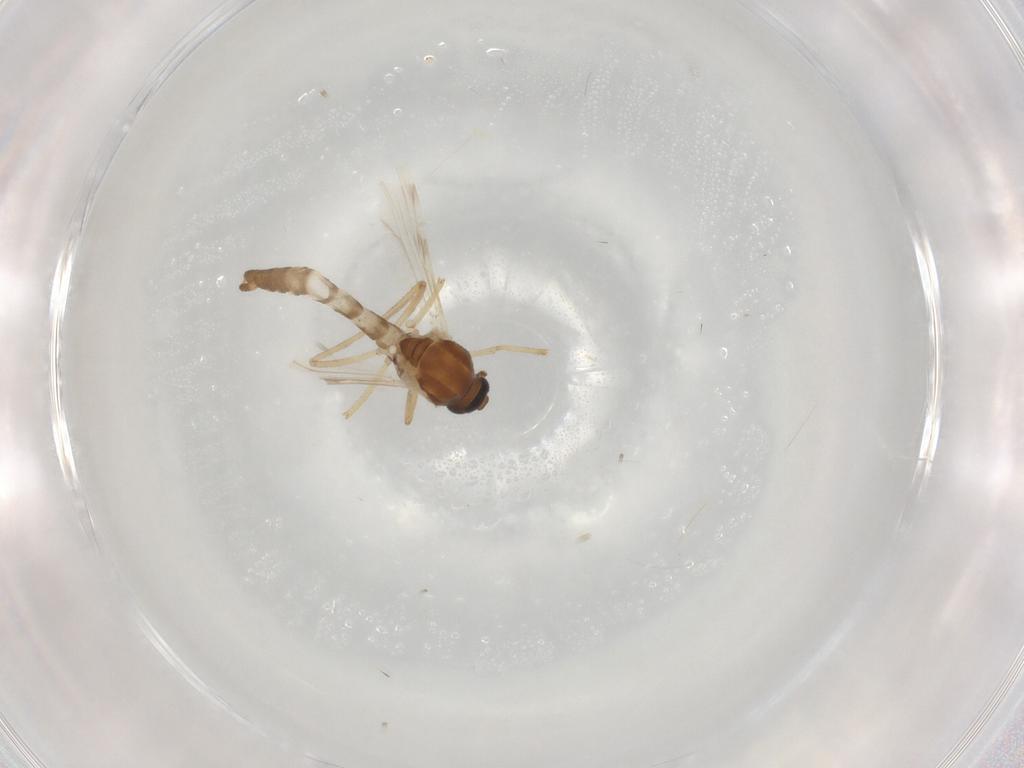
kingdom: Animalia
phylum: Arthropoda
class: Insecta
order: Diptera
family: Ceratopogonidae
